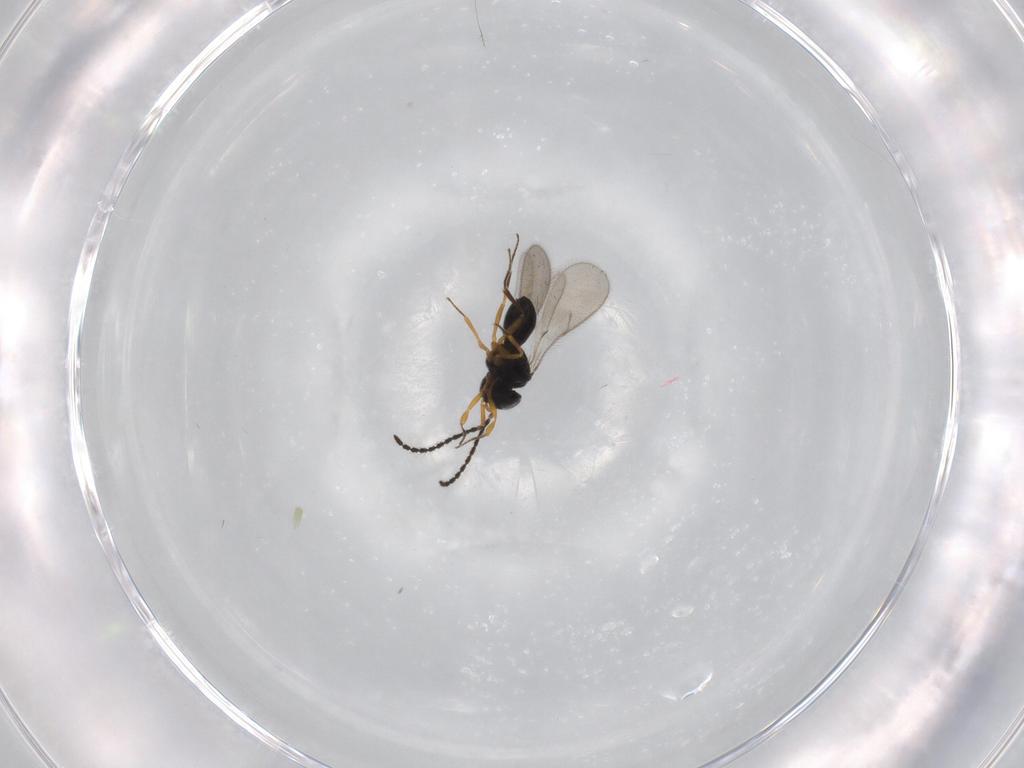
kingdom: Animalia
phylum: Arthropoda
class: Insecta
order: Hymenoptera
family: Scelionidae
